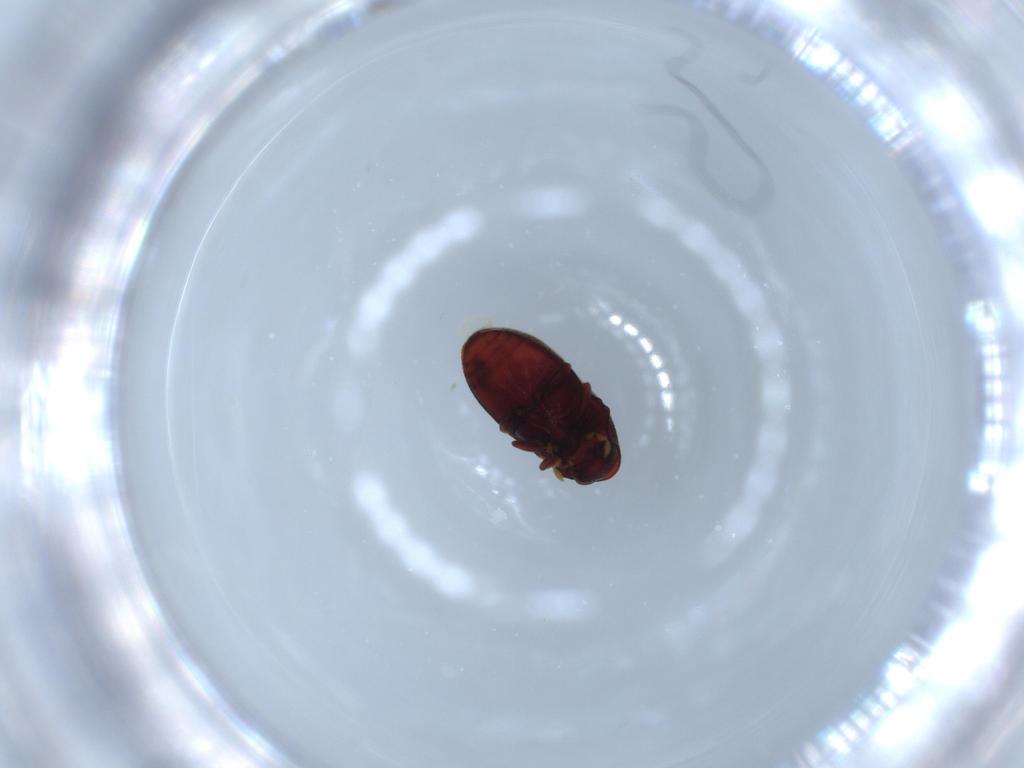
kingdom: Animalia
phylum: Arthropoda
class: Insecta
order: Coleoptera
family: Ptinidae
